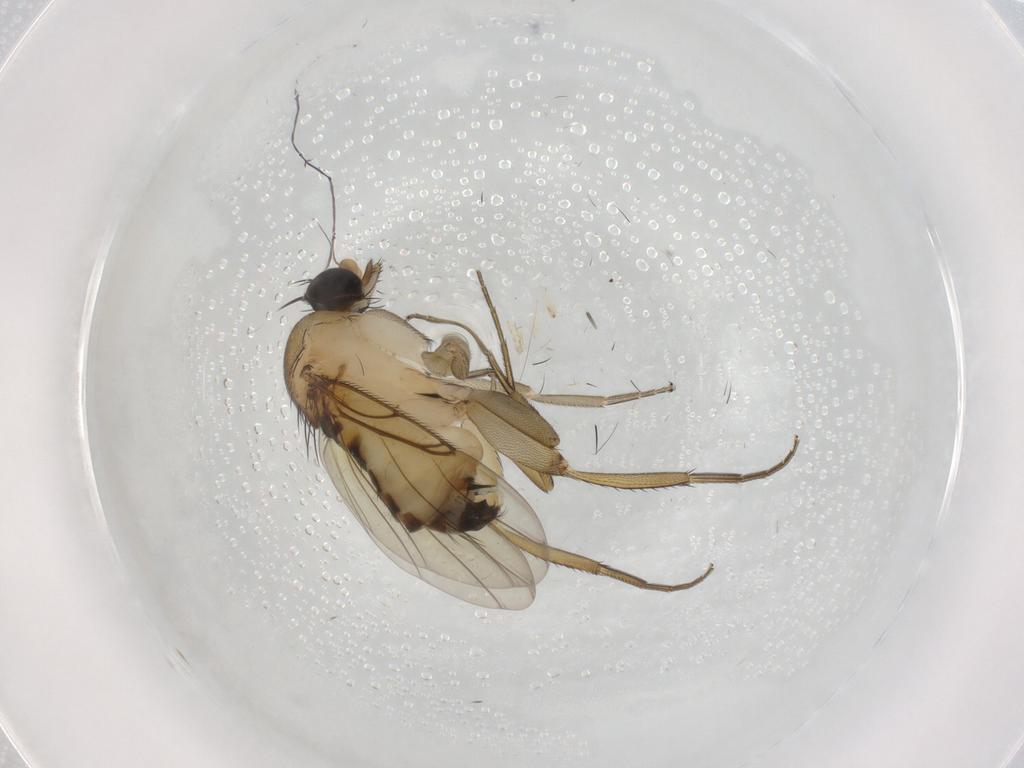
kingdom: Animalia
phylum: Arthropoda
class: Insecta
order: Diptera
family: Phoridae
